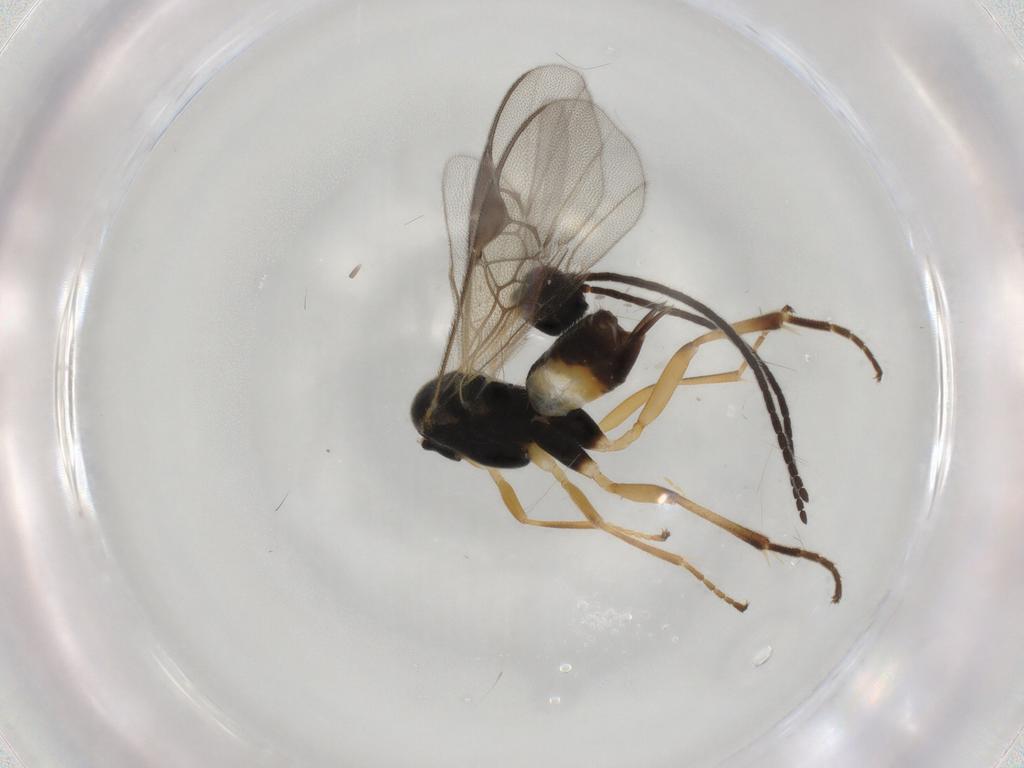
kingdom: Animalia
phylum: Arthropoda
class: Insecta
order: Hymenoptera
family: Braconidae
